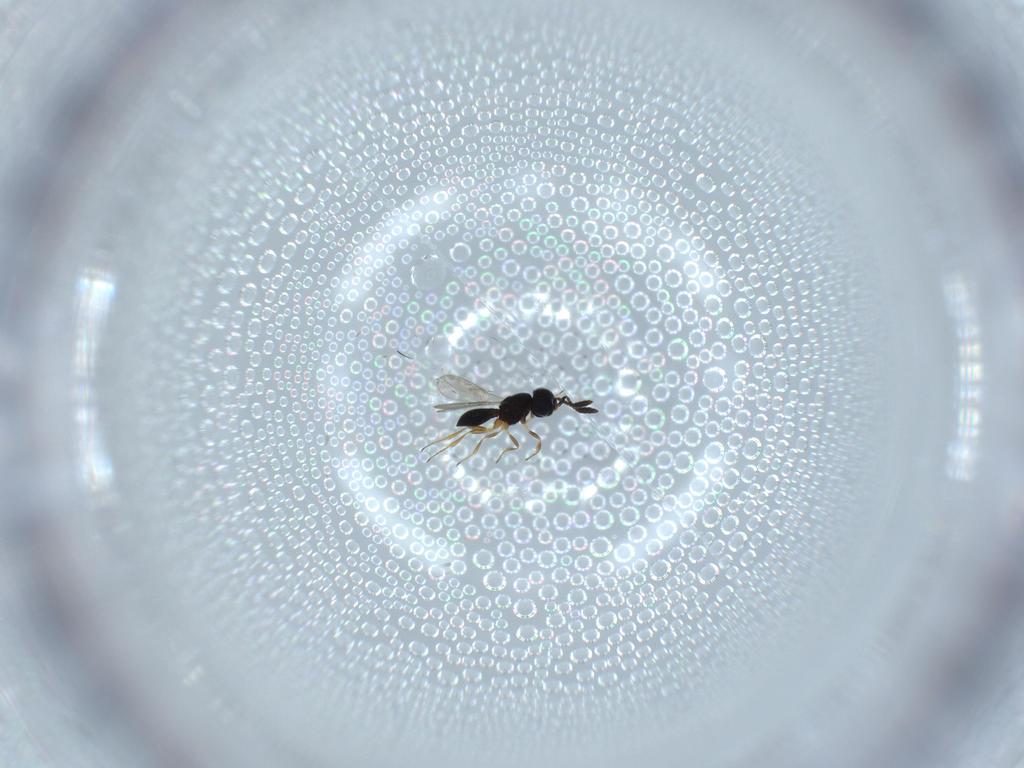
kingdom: Animalia
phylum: Arthropoda
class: Insecta
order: Hymenoptera
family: Scelionidae
